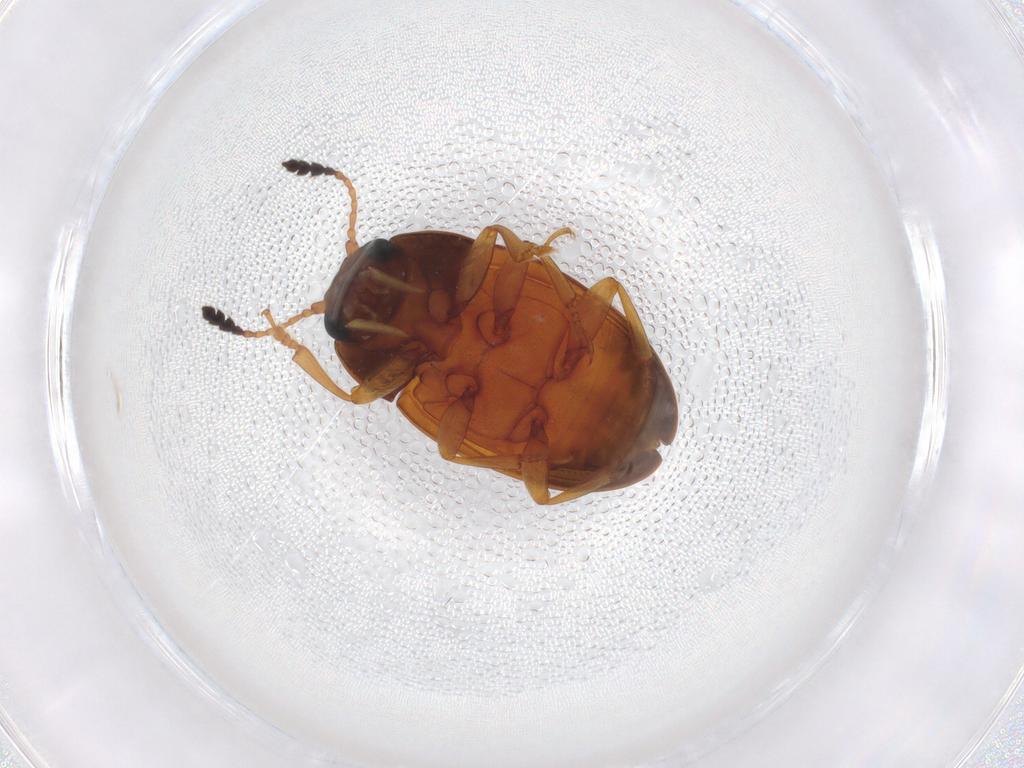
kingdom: Animalia
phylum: Arthropoda
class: Insecta
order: Coleoptera
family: Erotylidae
